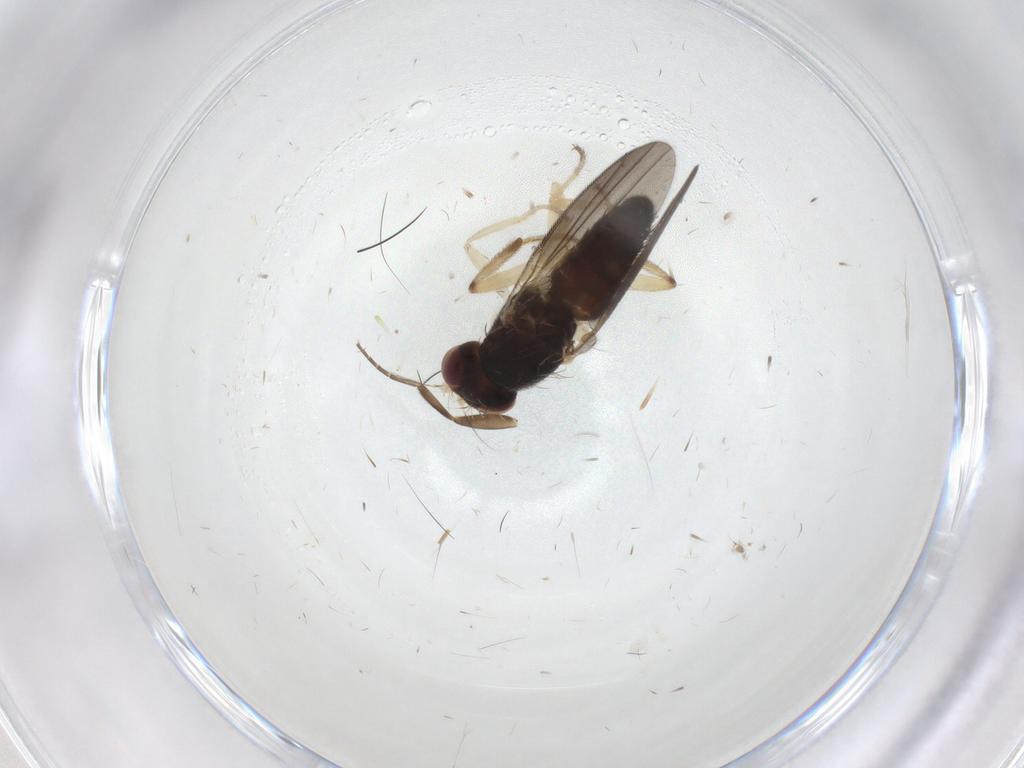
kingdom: Animalia
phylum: Arthropoda
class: Insecta
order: Diptera
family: Clusiidae
